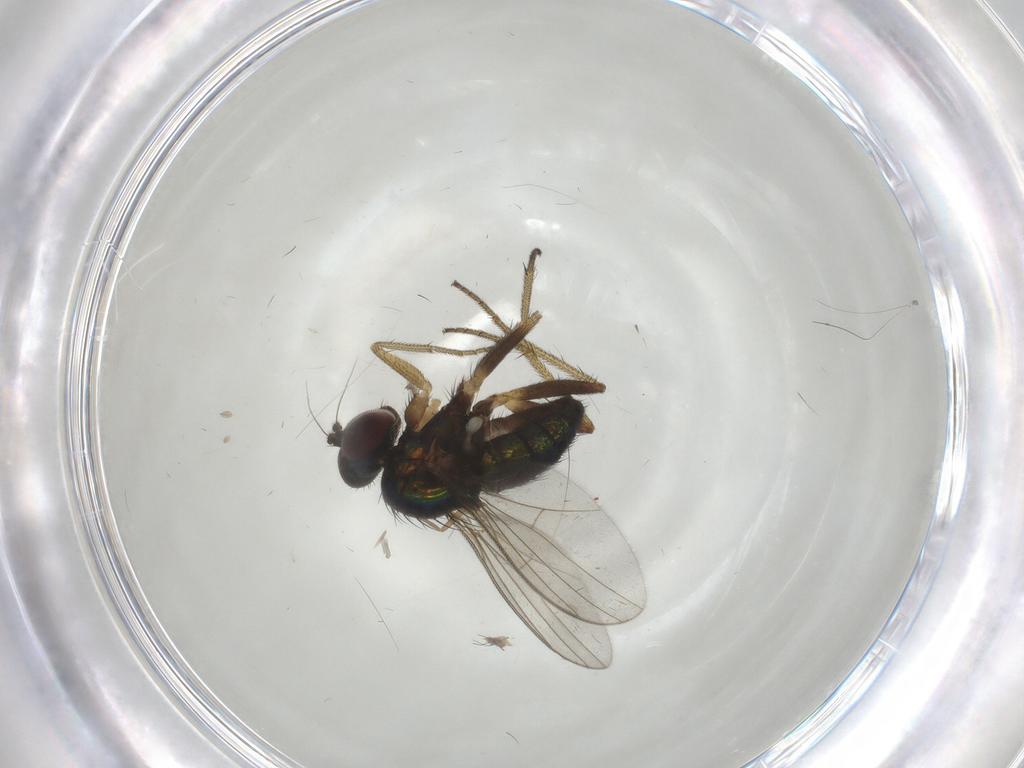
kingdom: Animalia
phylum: Arthropoda
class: Insecta
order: Diptera
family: Chironomidae
